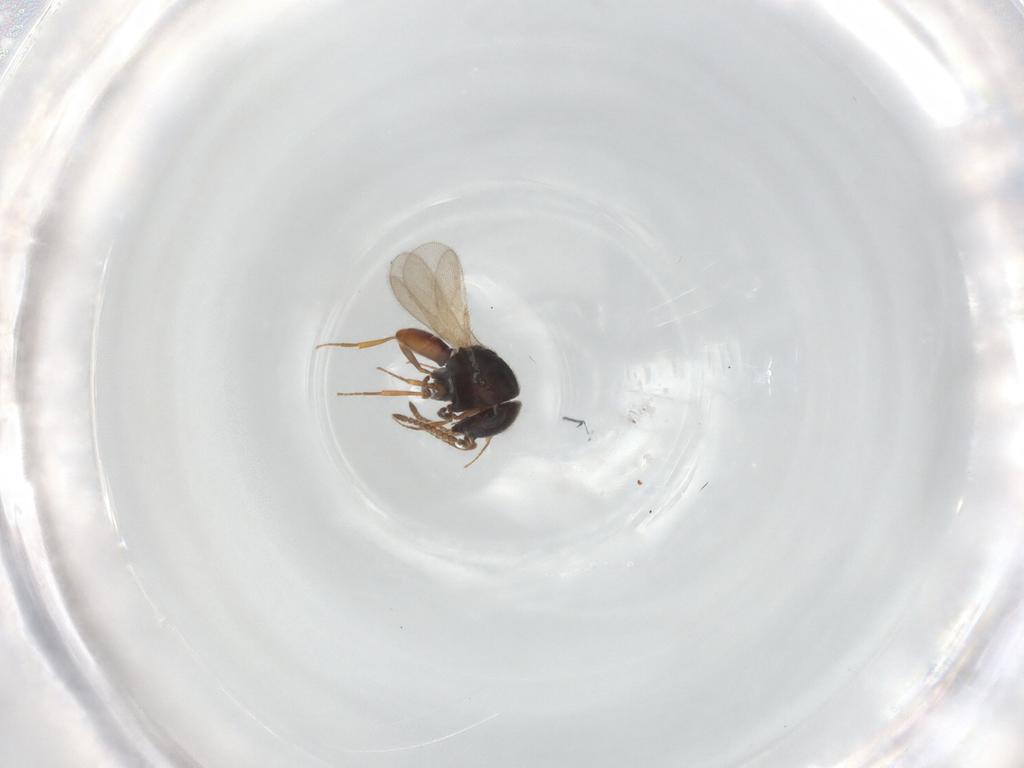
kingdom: Animalia
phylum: Arthropoda
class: Insecta
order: Hymenoptera
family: Scelionidae
